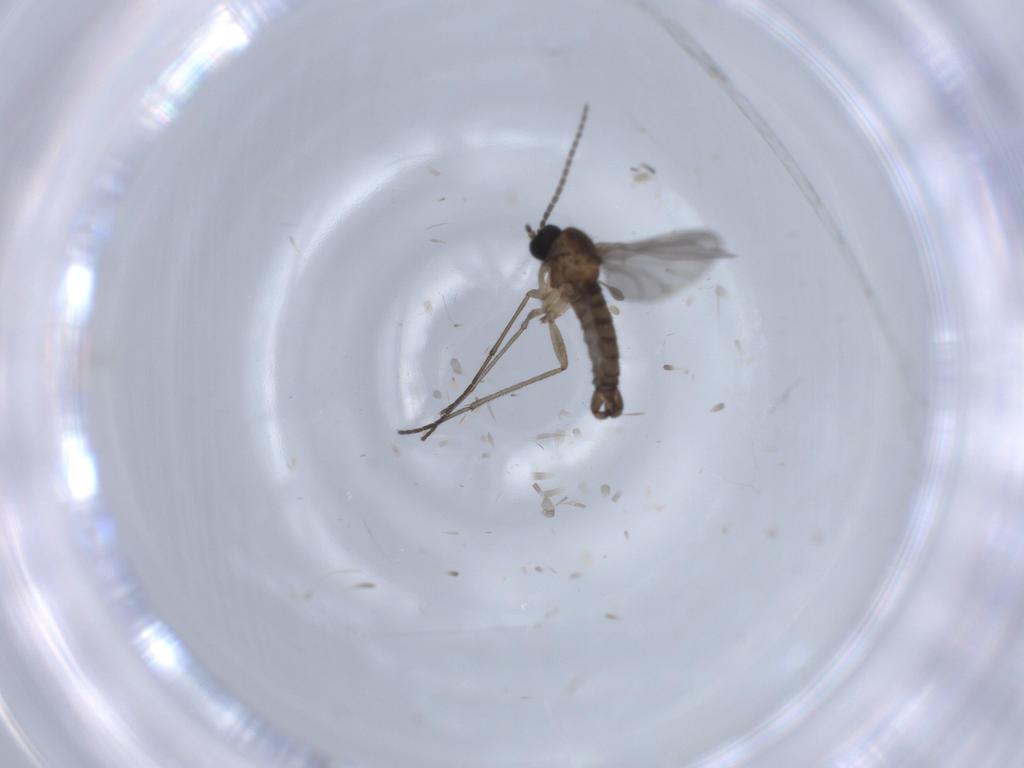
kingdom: Animalia
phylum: Arthropoda
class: Insecta
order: Diptera
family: Sciaridae
